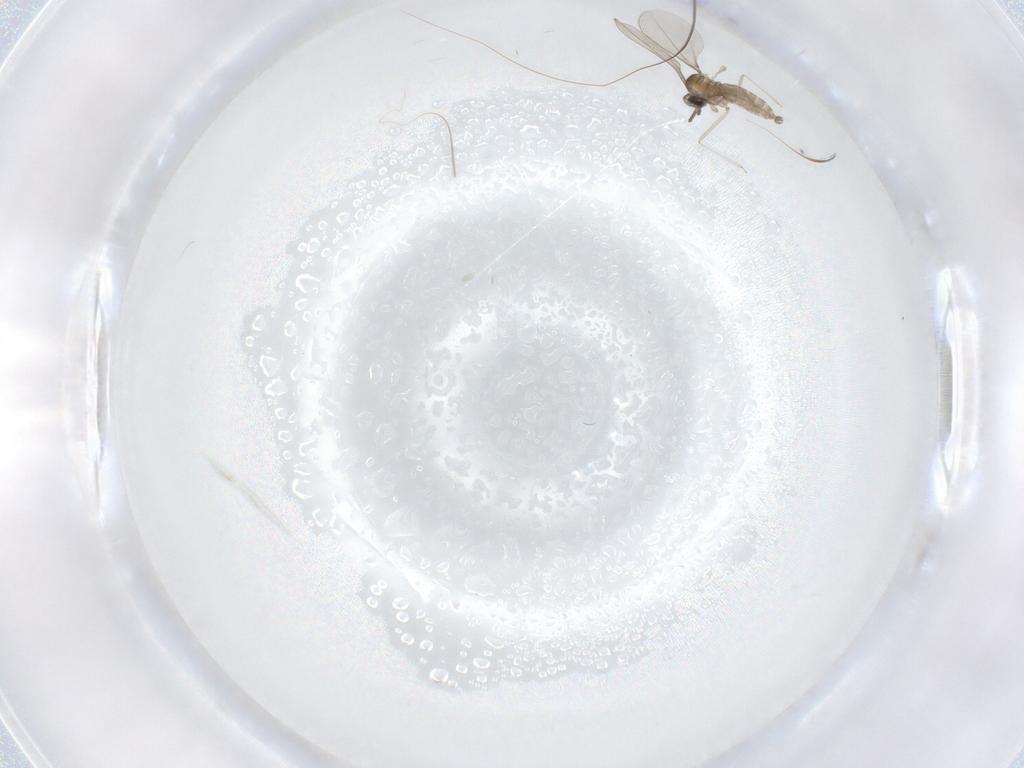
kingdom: Animalia
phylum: Arthropoda
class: Insecta
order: Diptera
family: Cecidomyiidae
